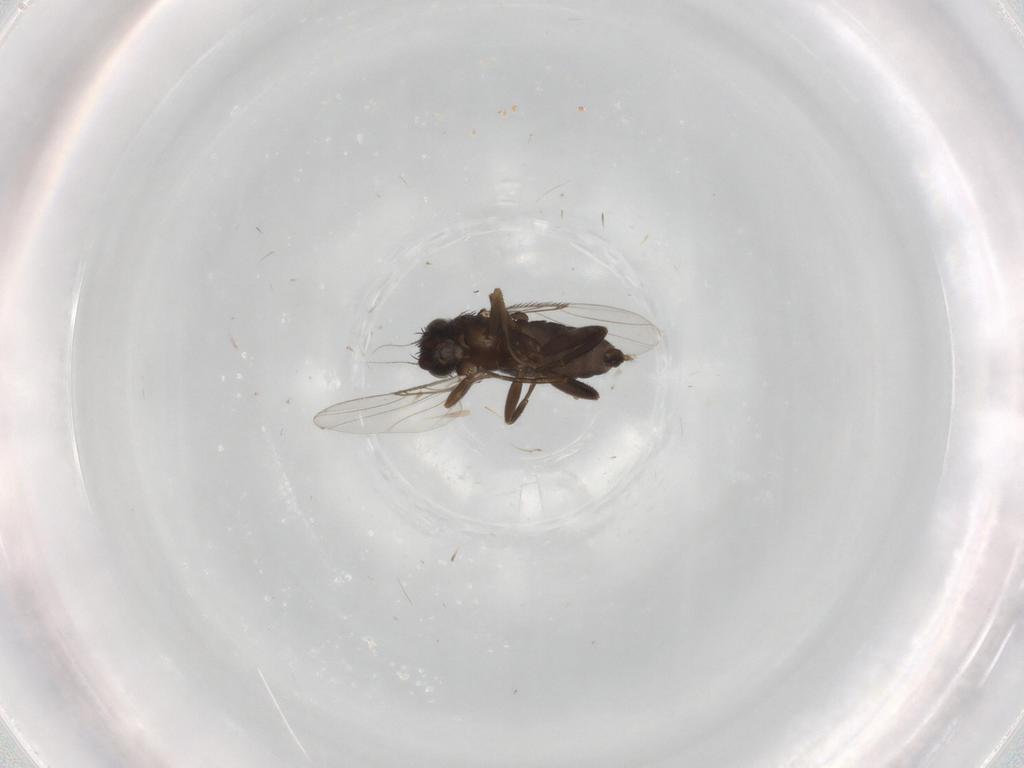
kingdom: Animalia
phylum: Arthropoda
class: Insecta
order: Diptera
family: Phoridae
